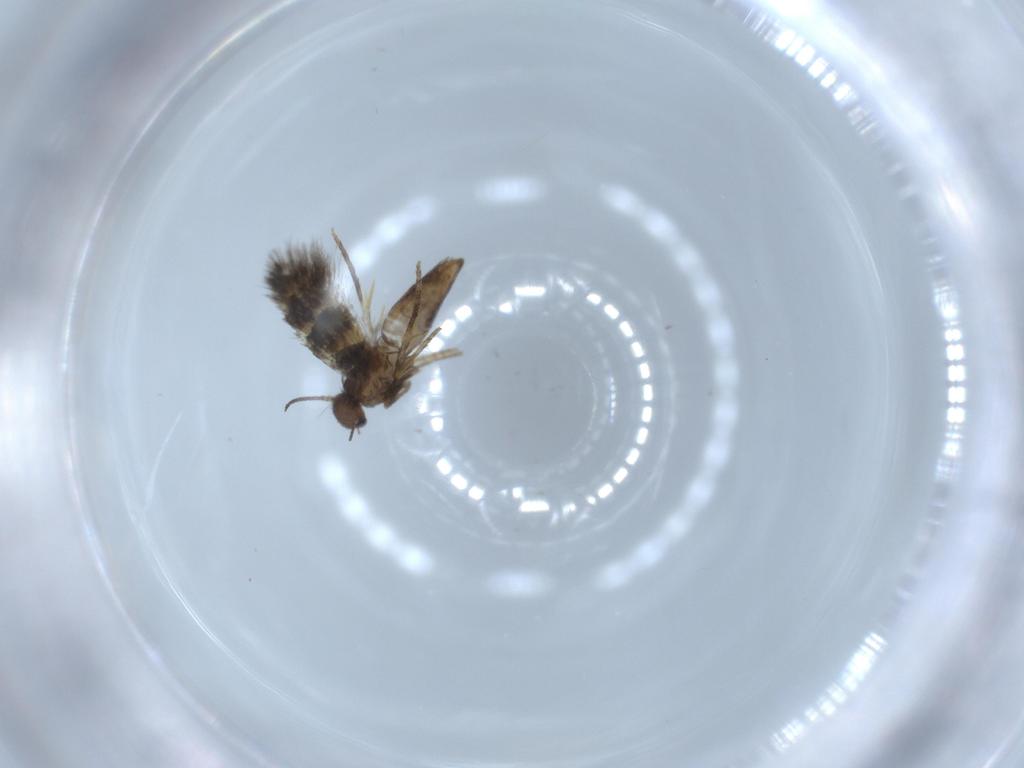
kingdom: Animalia
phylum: Arthropoda
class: Insecta
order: Lepidoptera
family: Heliozelidae
